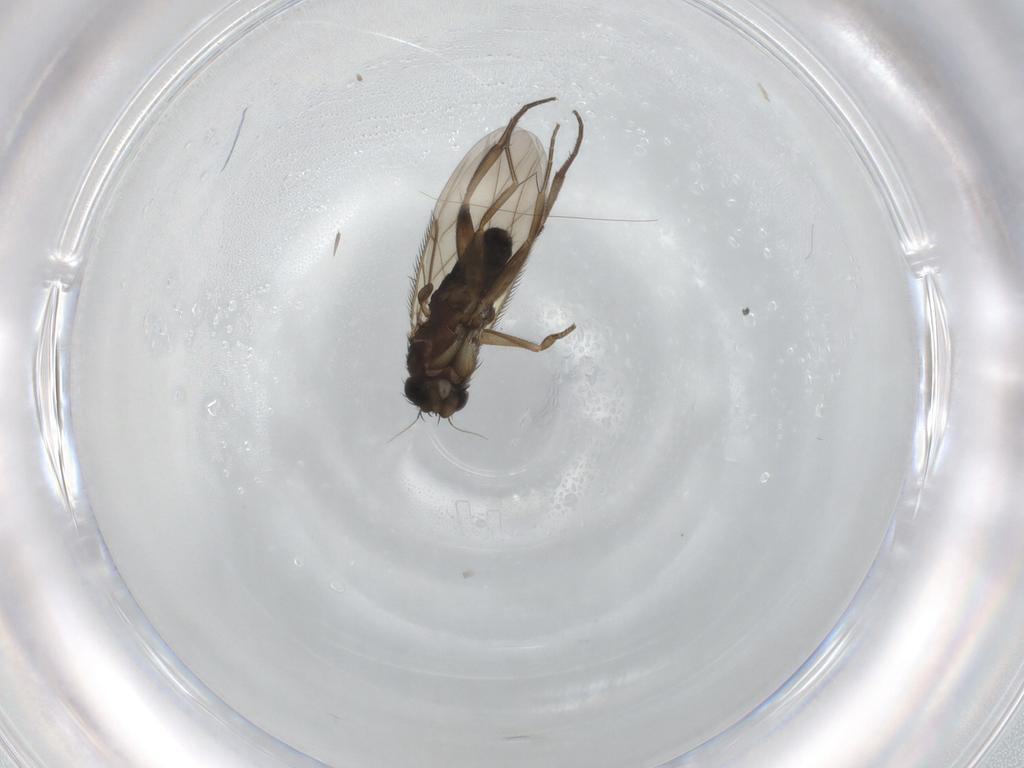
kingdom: Animalia
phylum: Arthropoda
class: Insecta
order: Diptera
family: Phoridae
